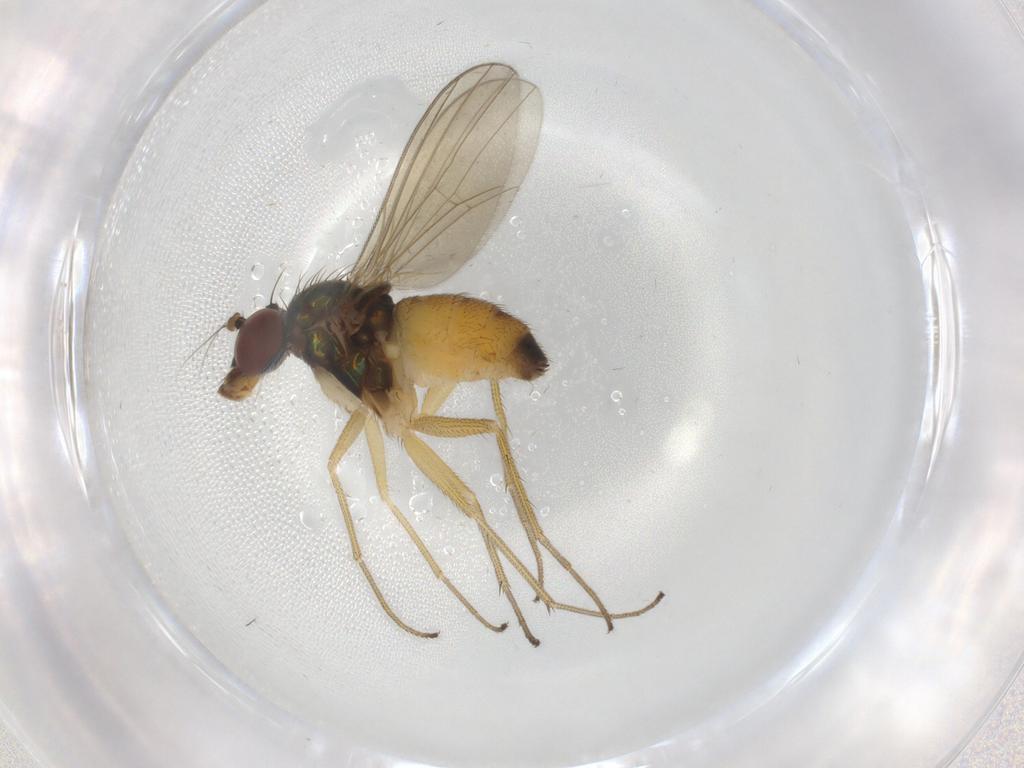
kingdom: Animalia
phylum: Arthropoda
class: Insecta
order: Diptera
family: Dolichopodidae
